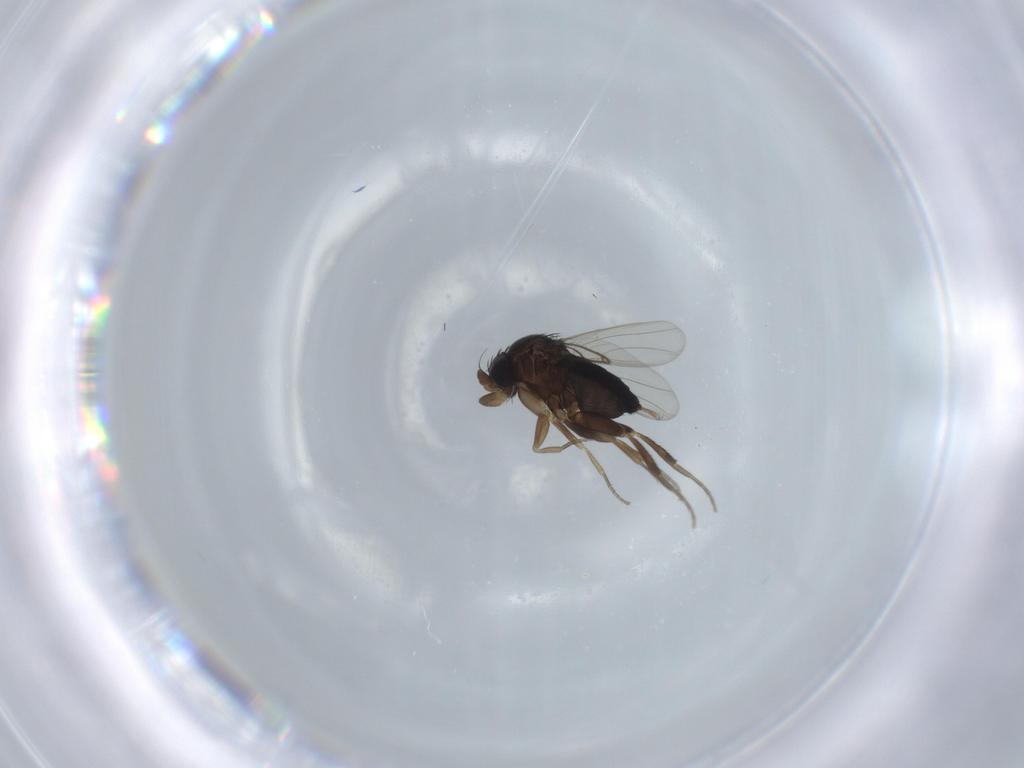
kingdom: Animalia
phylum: Arthropoda
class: Insecta
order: Diptera
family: Phoridae
